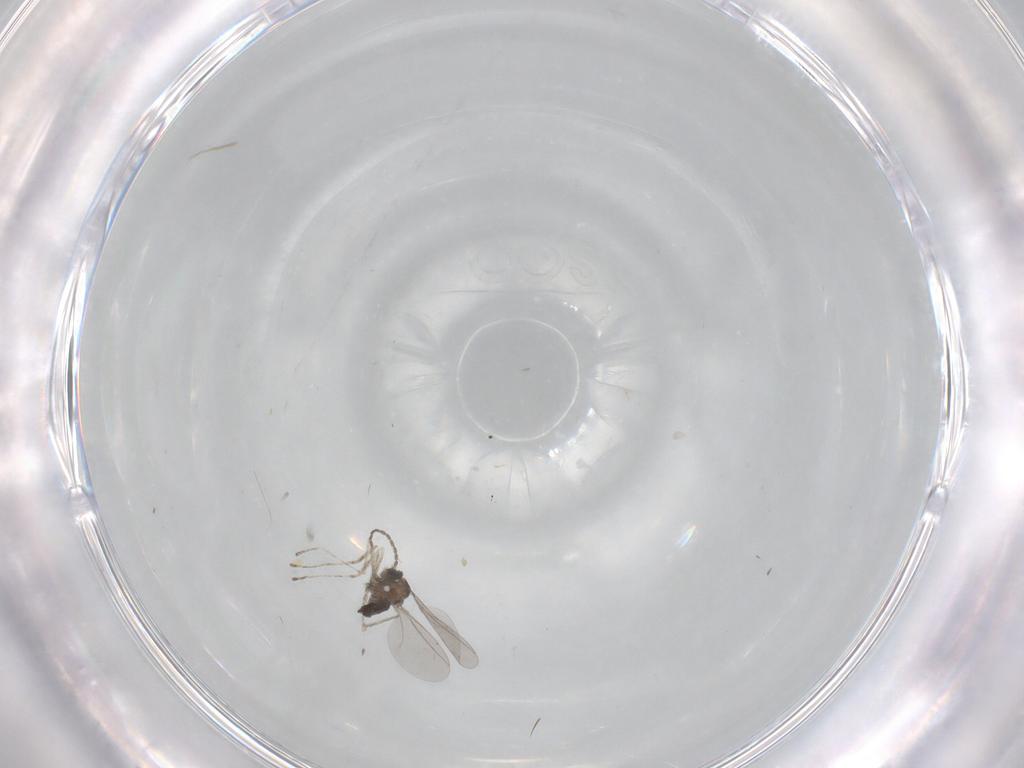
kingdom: Animalia
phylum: Arthropoda
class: Insecta
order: Diptera
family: Chironomidae
